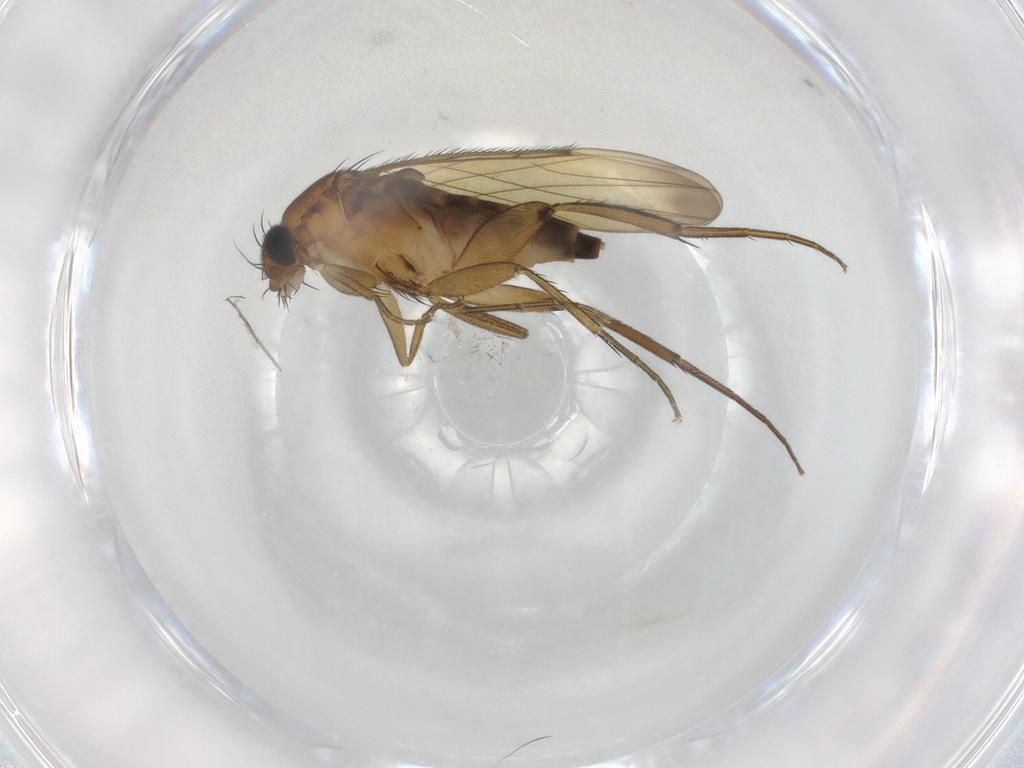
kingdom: Animalia
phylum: Arthropoda
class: Insecta
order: Diptera
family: Phoridae
